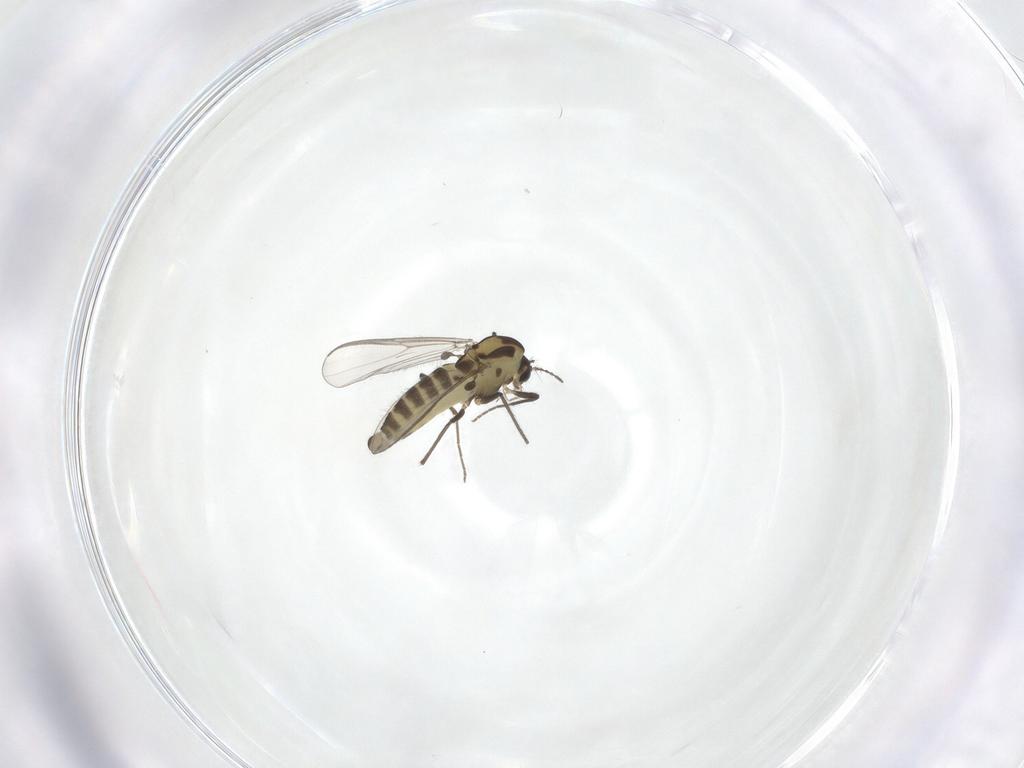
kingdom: Animalia
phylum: Arthropoda
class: Insecta
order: Diptera
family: Chironomidae
